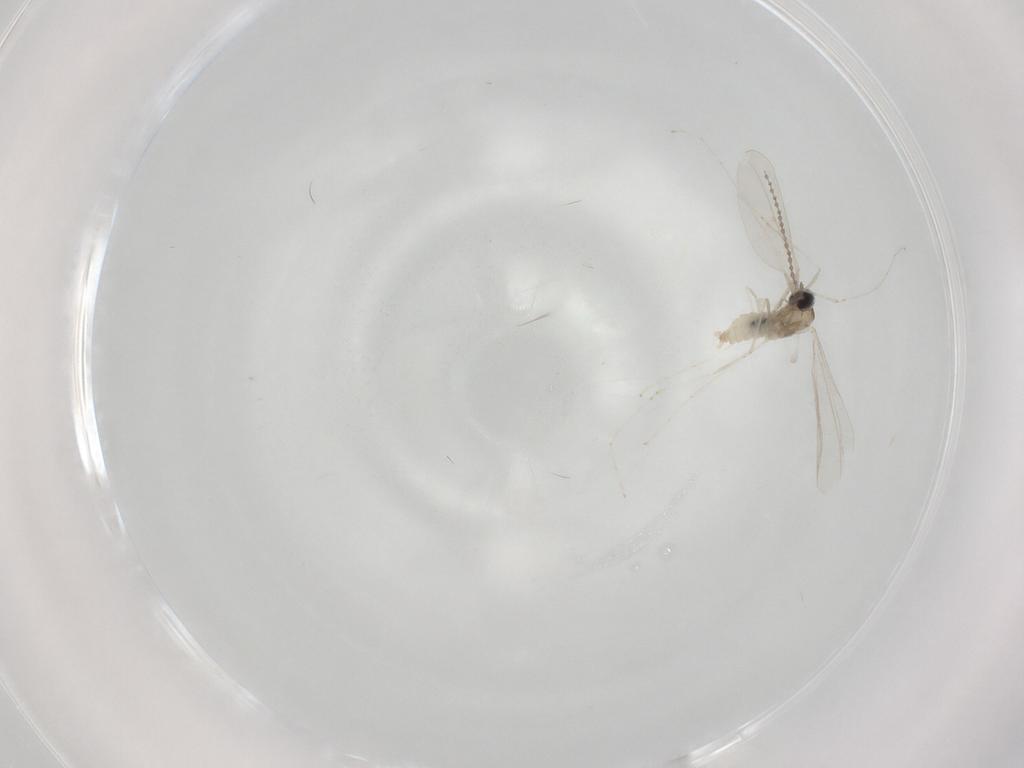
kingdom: Animalia
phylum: Arthropoda
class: Insecta
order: Diptera
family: Cecidomyiidae
